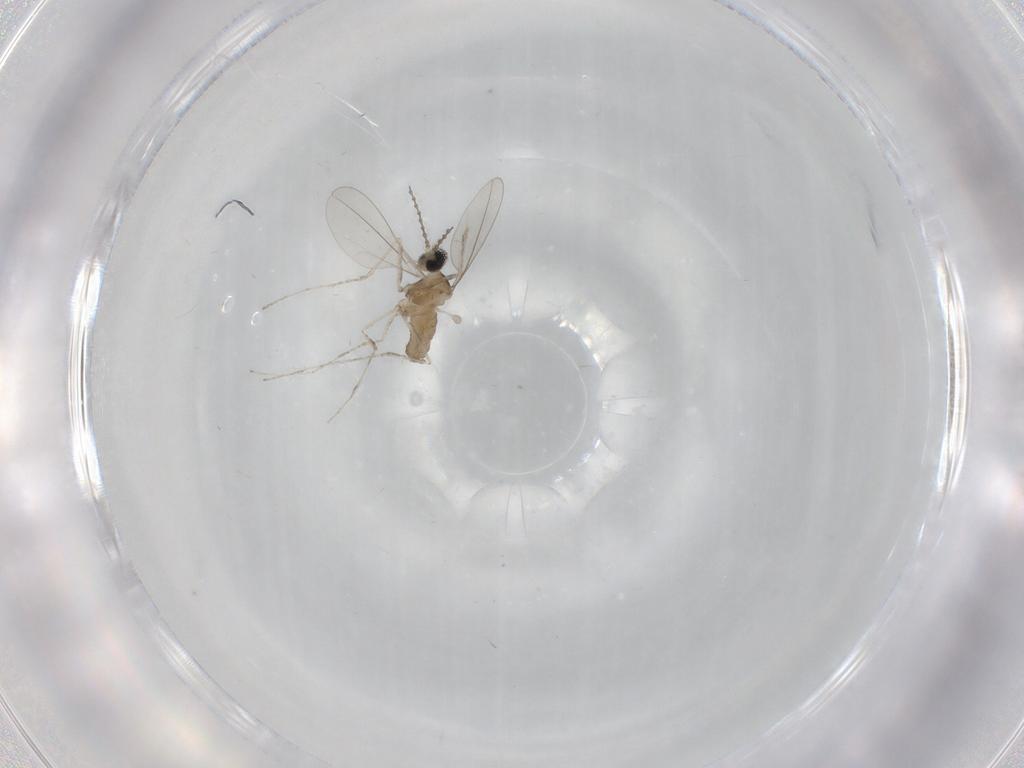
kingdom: Animalia
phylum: Arthropoda
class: Insecta
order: Diptera
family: Cecidomyiidae
